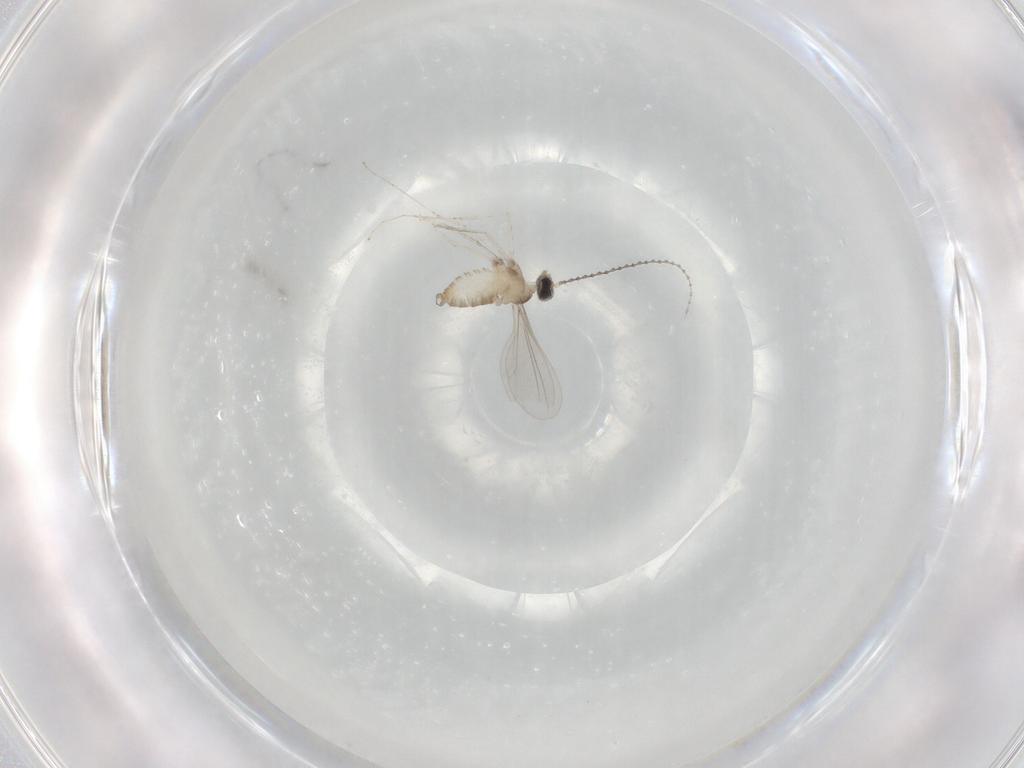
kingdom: Animalia
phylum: Arthropoda
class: Insecta
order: Diptera
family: Cecidomyiidae
